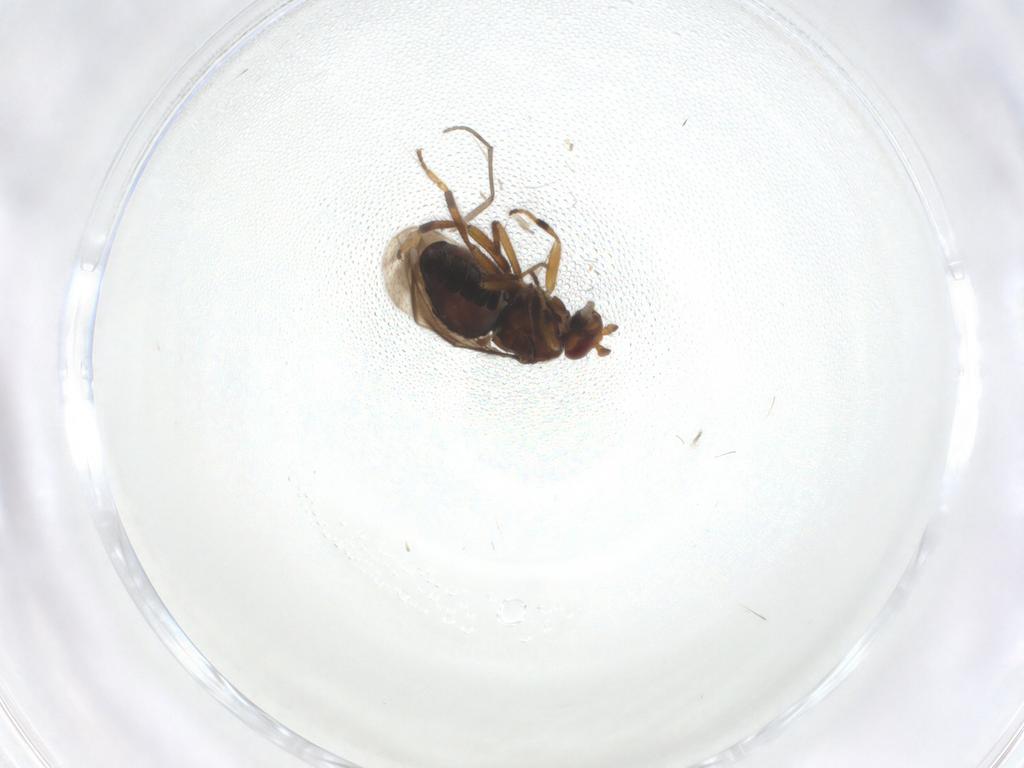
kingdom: Animalia
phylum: Arthropoda
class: Insecta
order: Diptera
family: Sphaeroceridae
